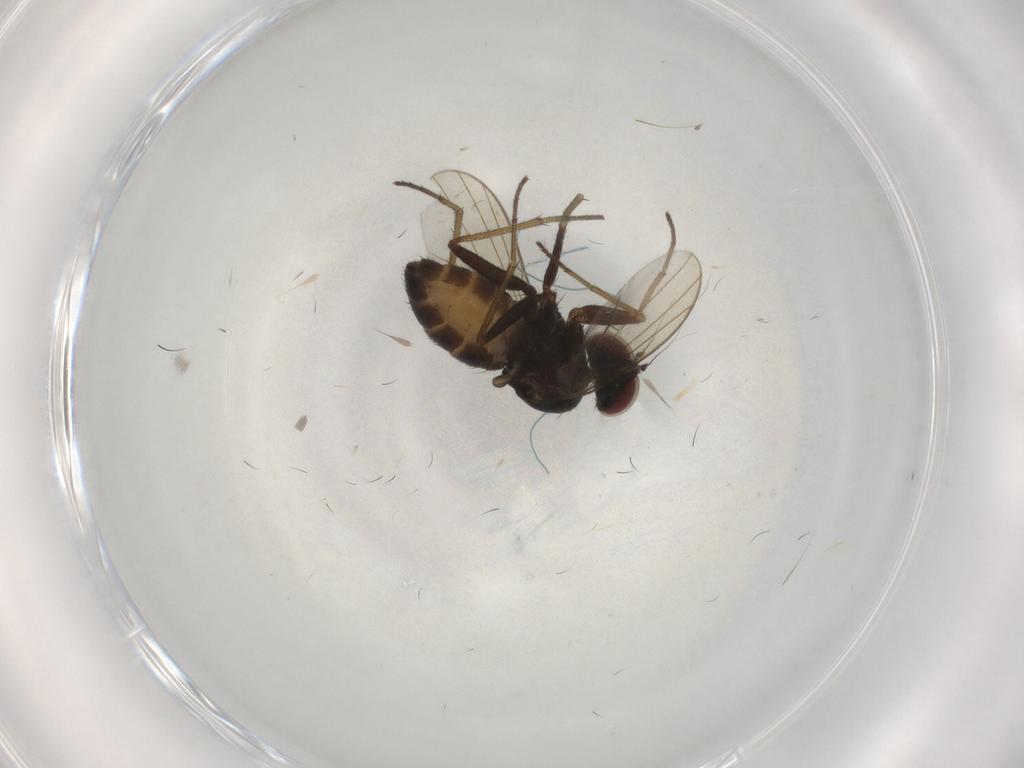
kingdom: Animalia
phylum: Arthropoda
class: Insecta
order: Diptera
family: Dolichopodidae
